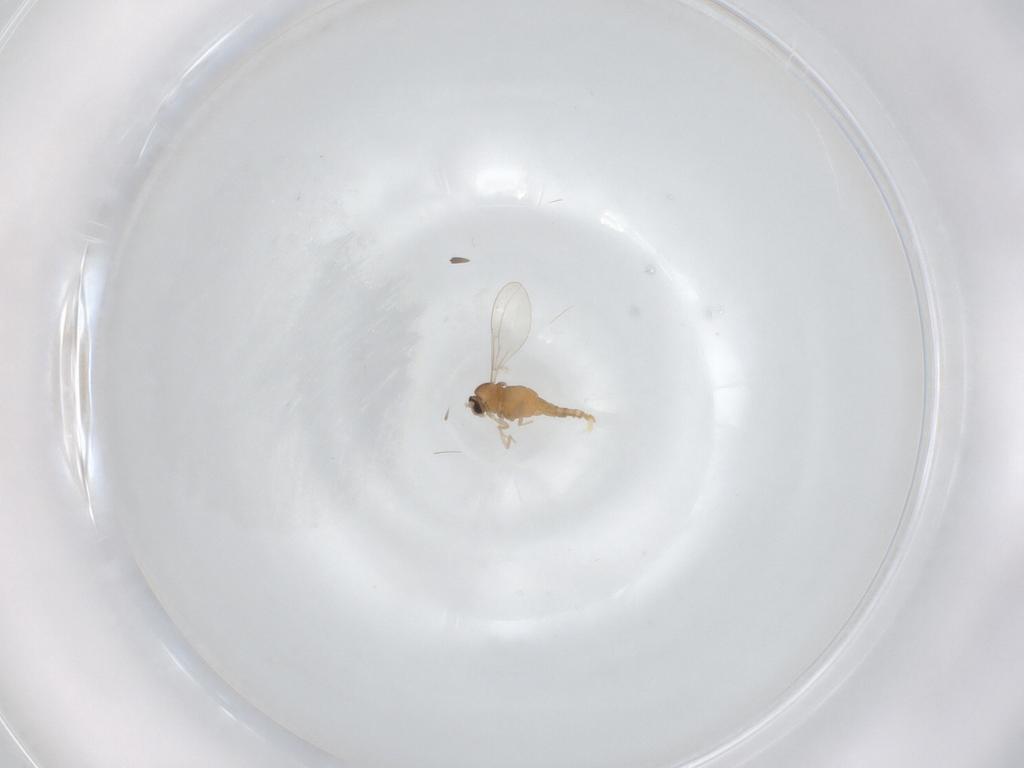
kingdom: Animalia
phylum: Arthropoda
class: Insecta
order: Diptera
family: Cecidomyiidae
